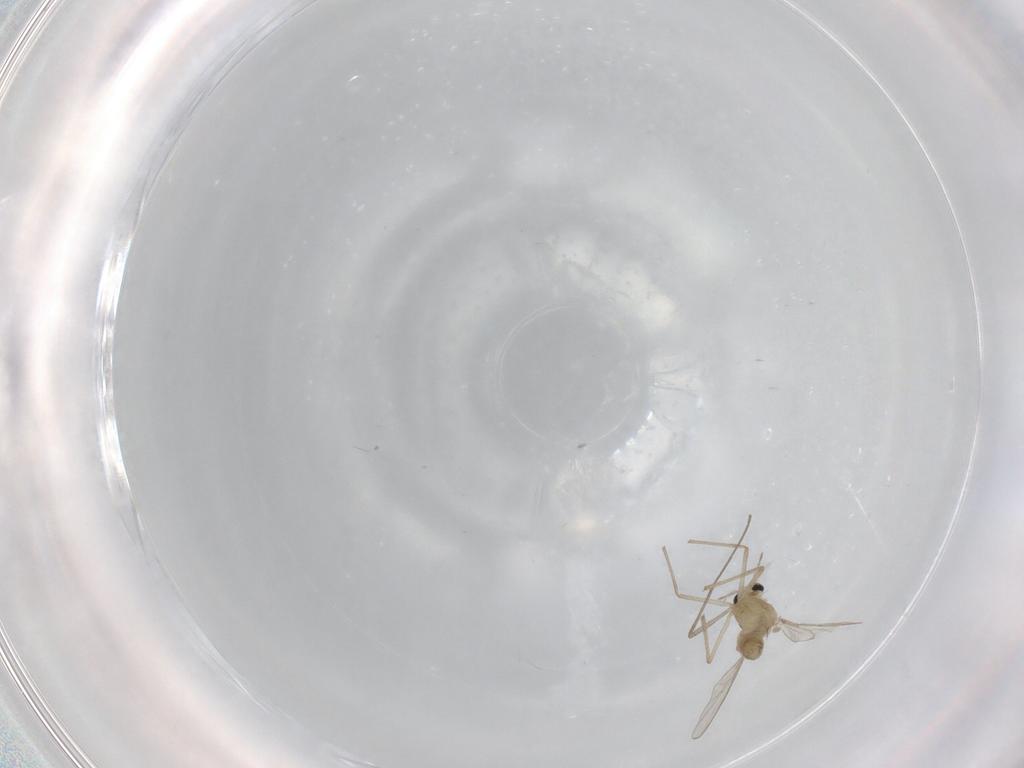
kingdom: Animalia
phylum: Arthropoda
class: Insecta
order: Diptera
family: Chironomidae
